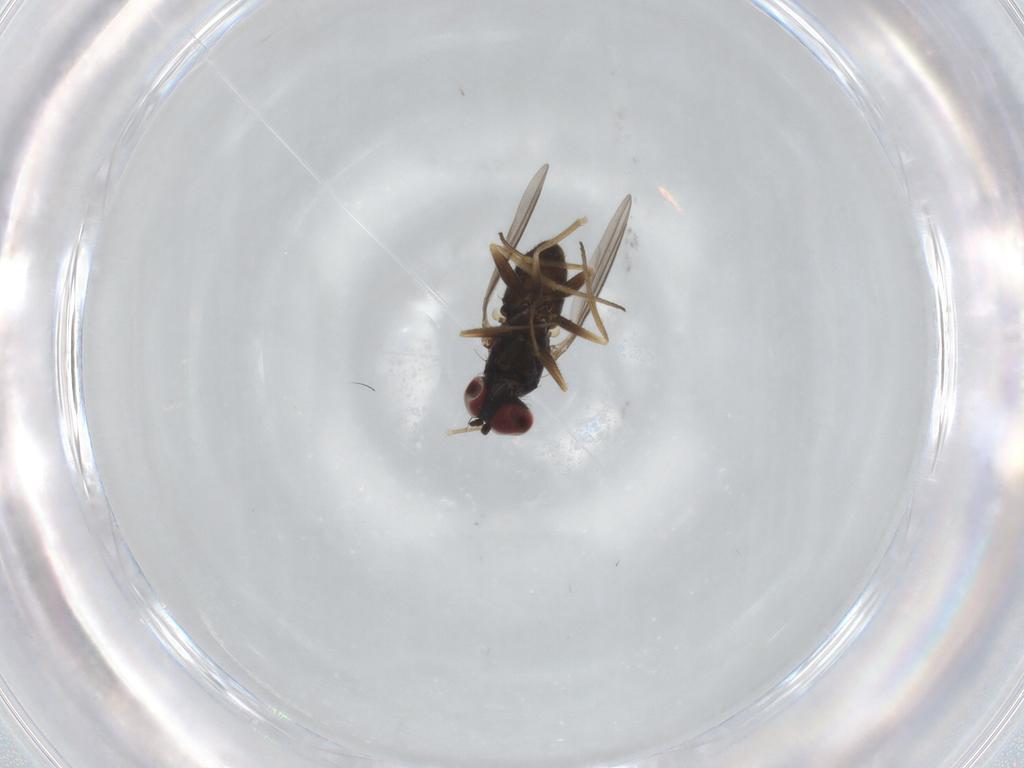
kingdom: Animalia
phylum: Arthropoda
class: Insecta
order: Diptera
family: Dolichopodidae
